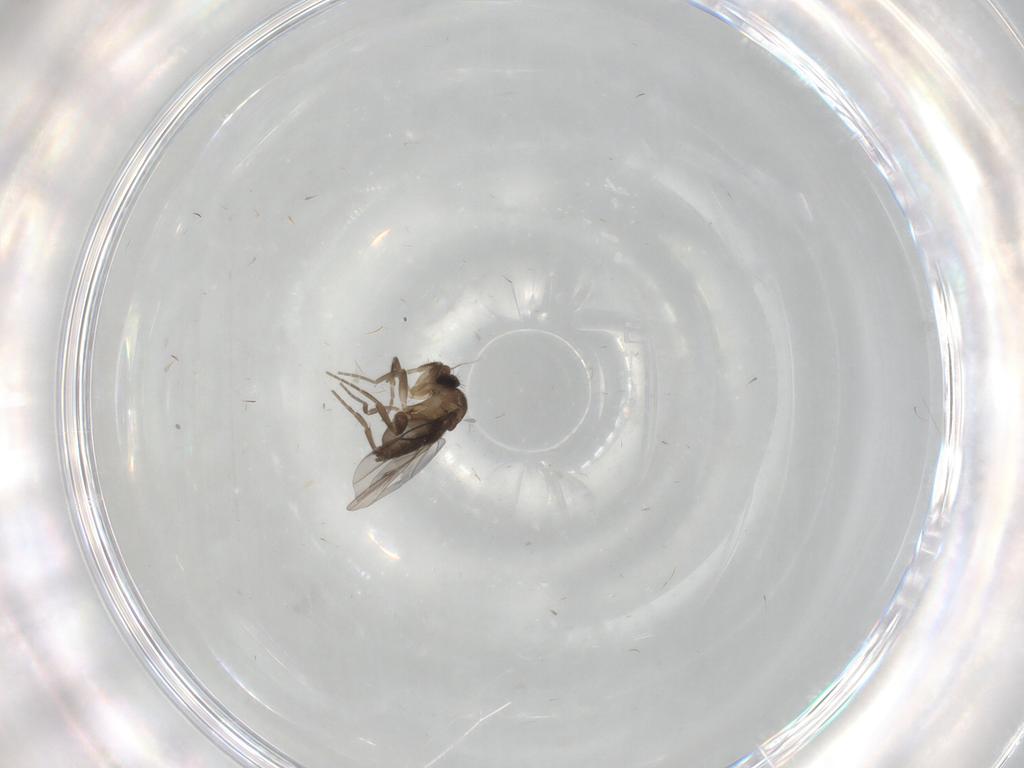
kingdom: Animalia
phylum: Arthropoda
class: Insecta
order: Diptera
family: Phoridae
